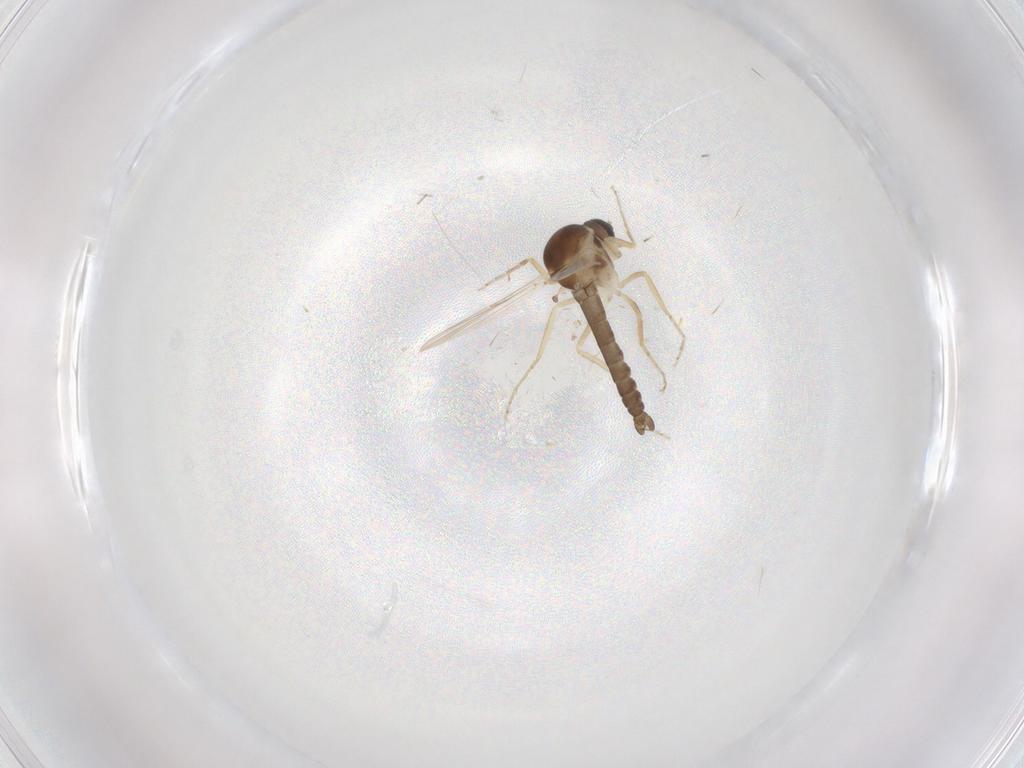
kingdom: Animalia
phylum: Arthropoda
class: Insecta
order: Diptera
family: Ceratopogonidae
